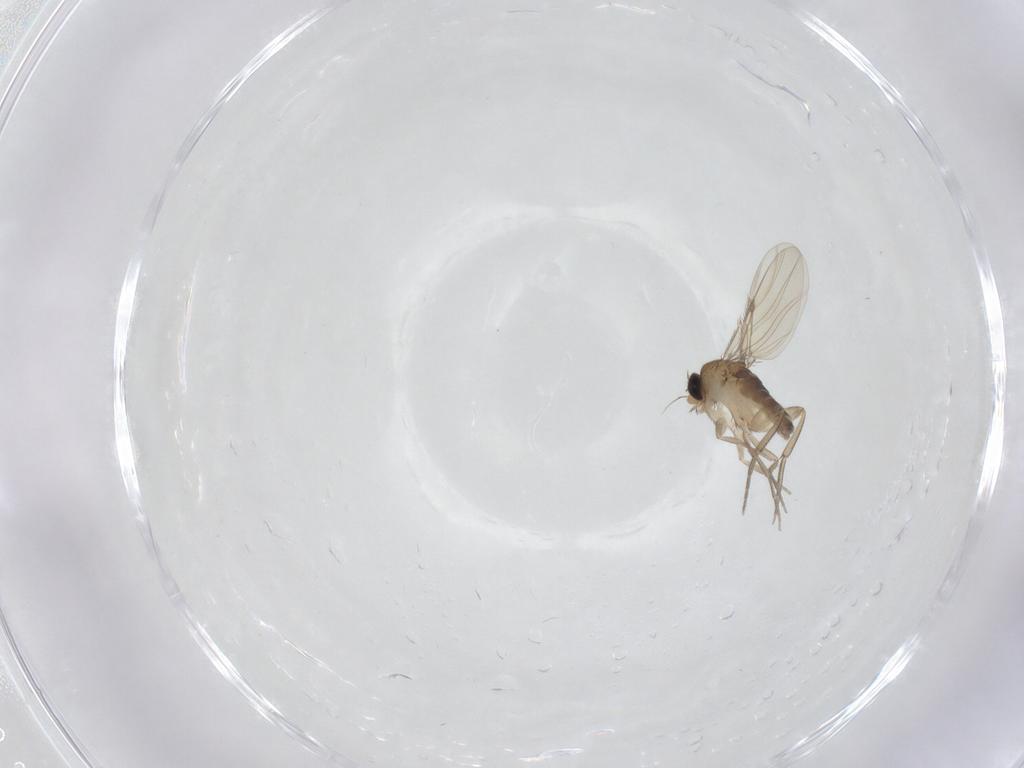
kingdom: Animalia
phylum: Arthropoda
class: Insecta
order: Diptera
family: Phoridae
